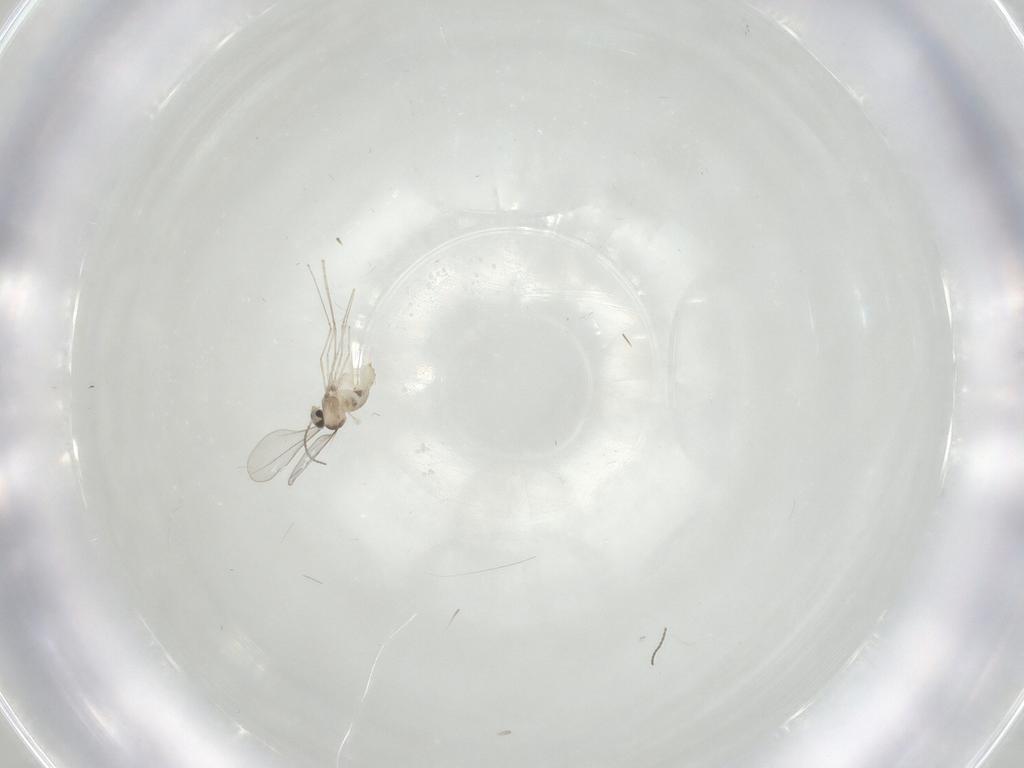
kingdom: Animalia
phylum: Arthropoda
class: Insecta
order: Diptera
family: Cecidomyiidae
